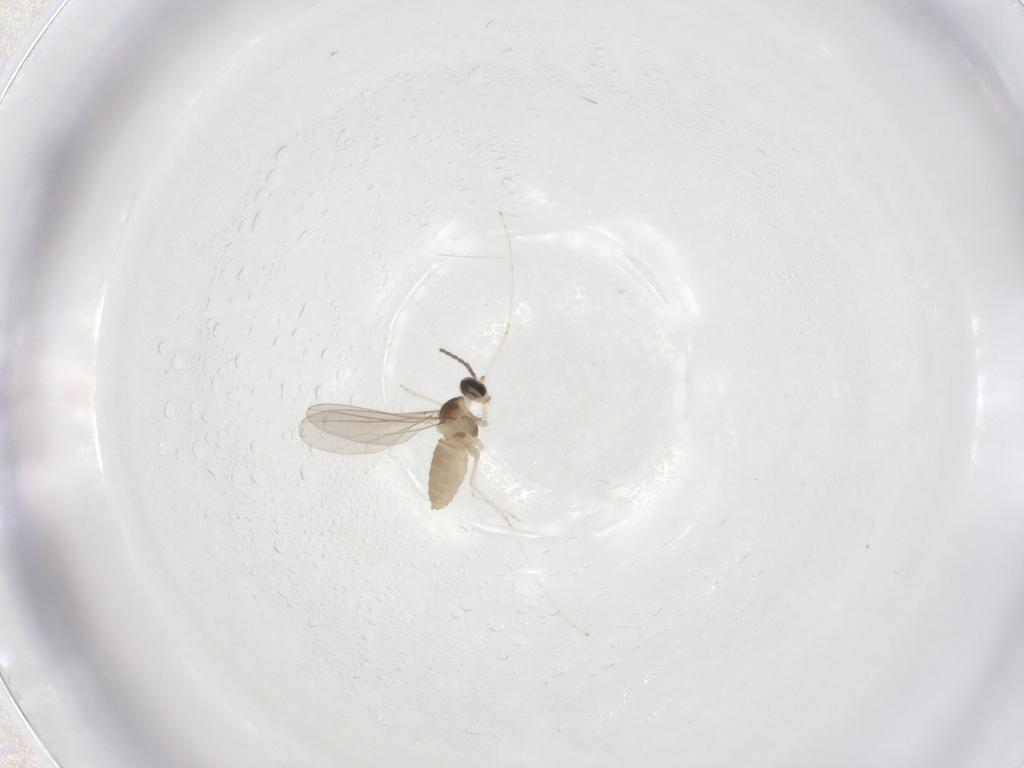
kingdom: Animalia
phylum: Arthropoda
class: Insecta
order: Diptera
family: Cecidomyiidae
